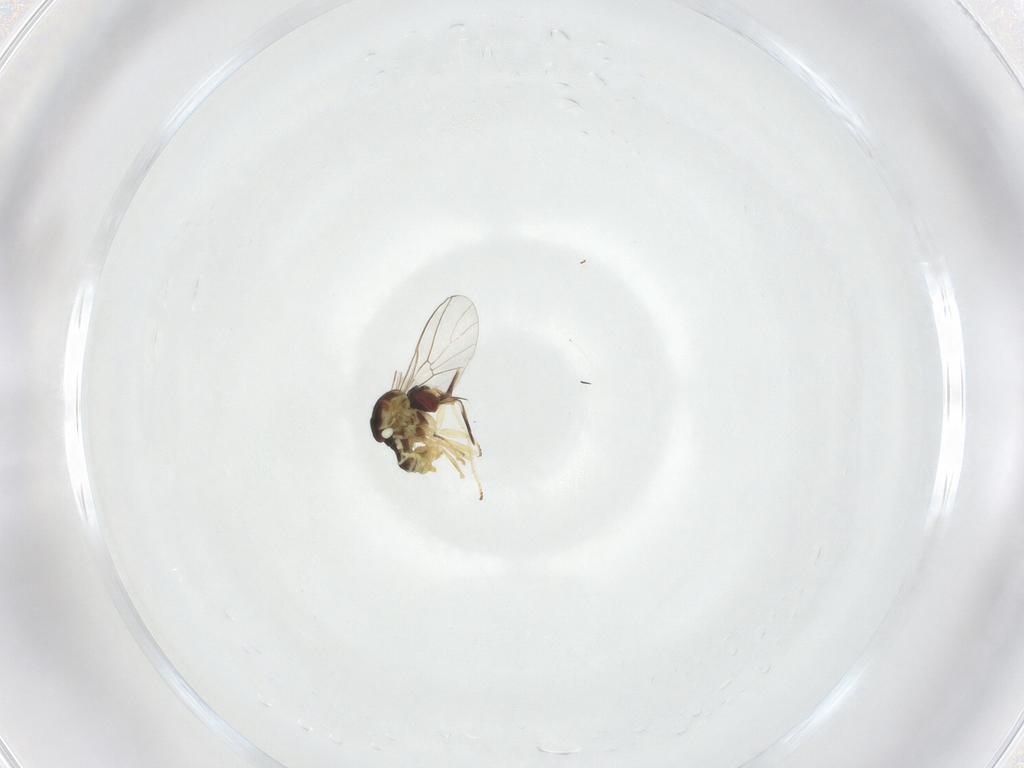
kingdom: Animalia
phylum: Arthropoda
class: Insecta
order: Diptera
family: Mythicomyiidae
